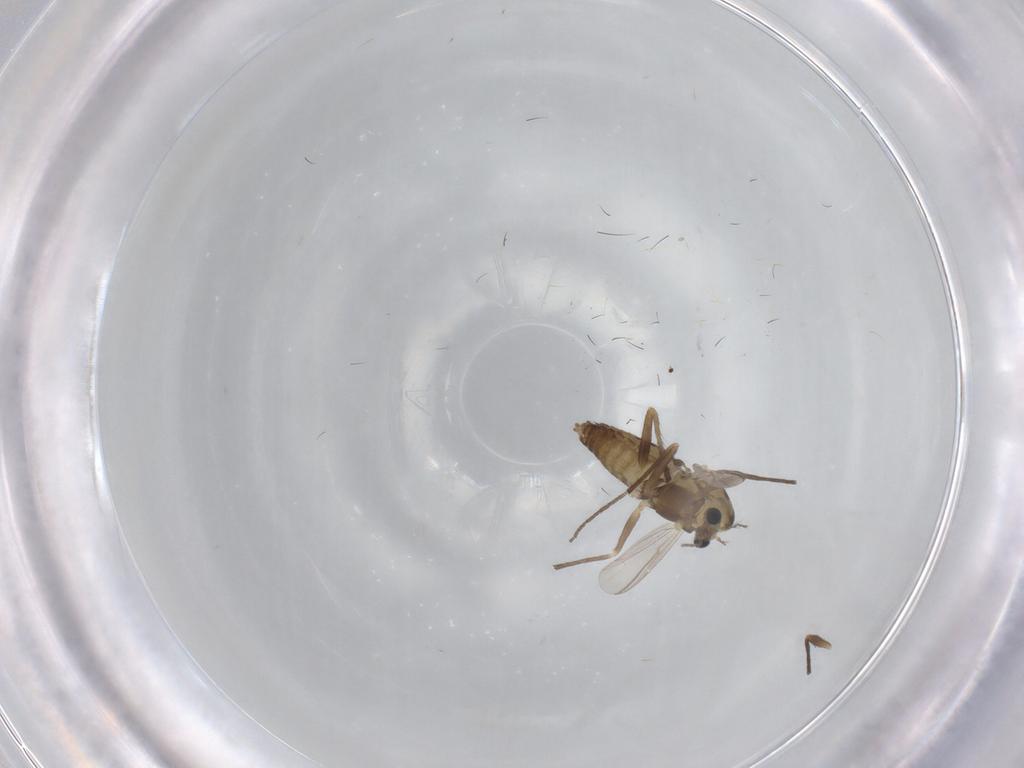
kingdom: Animalia
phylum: Arthropoda
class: Insecta
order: Diptera
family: Chironomidae
